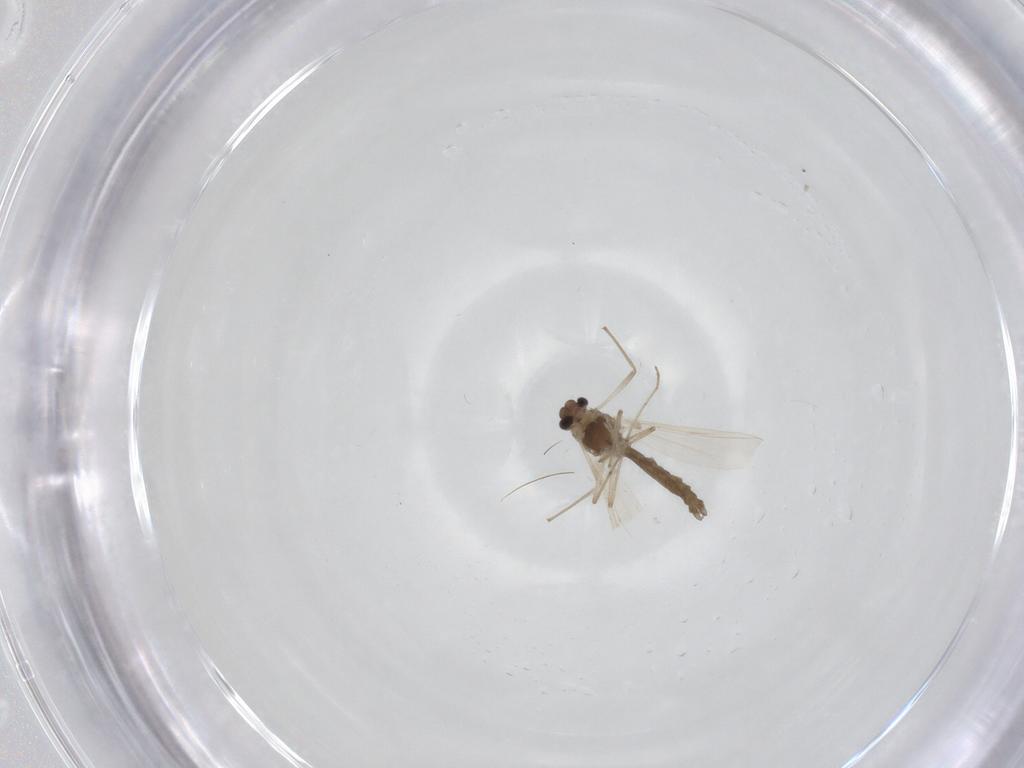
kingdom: Animalia
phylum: Arthropoda
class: Insecta
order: Diptera
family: Chironomidae
